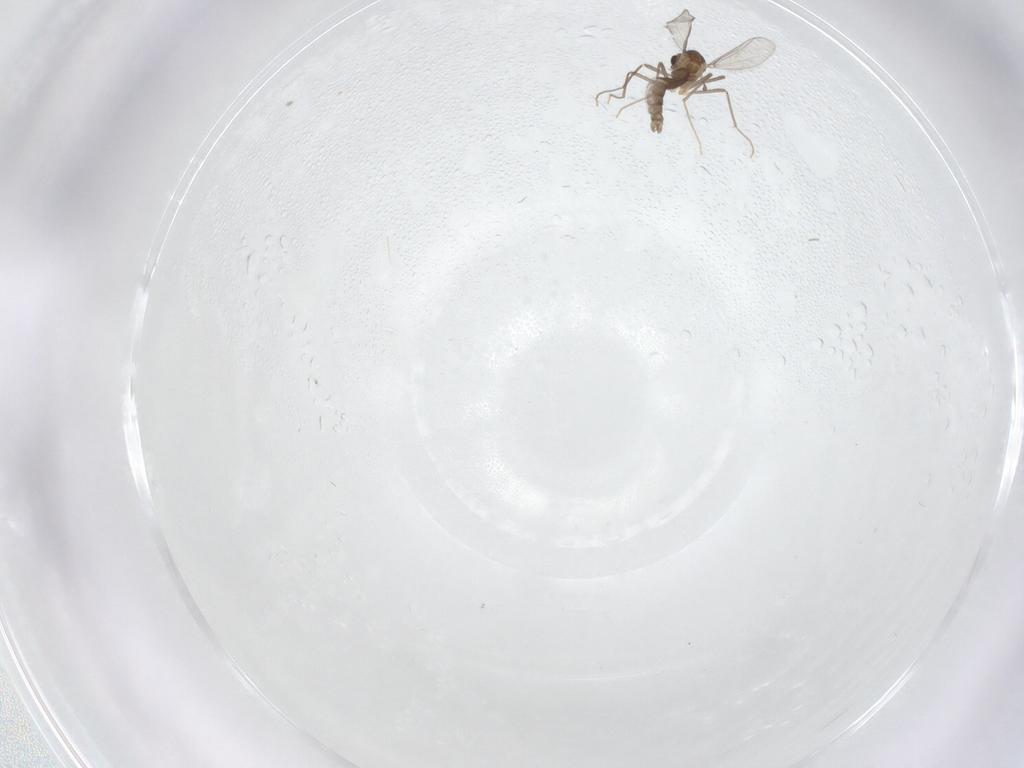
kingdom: Animalia
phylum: Arthropoda
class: Insecta
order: Diptera
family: Chironomidae
